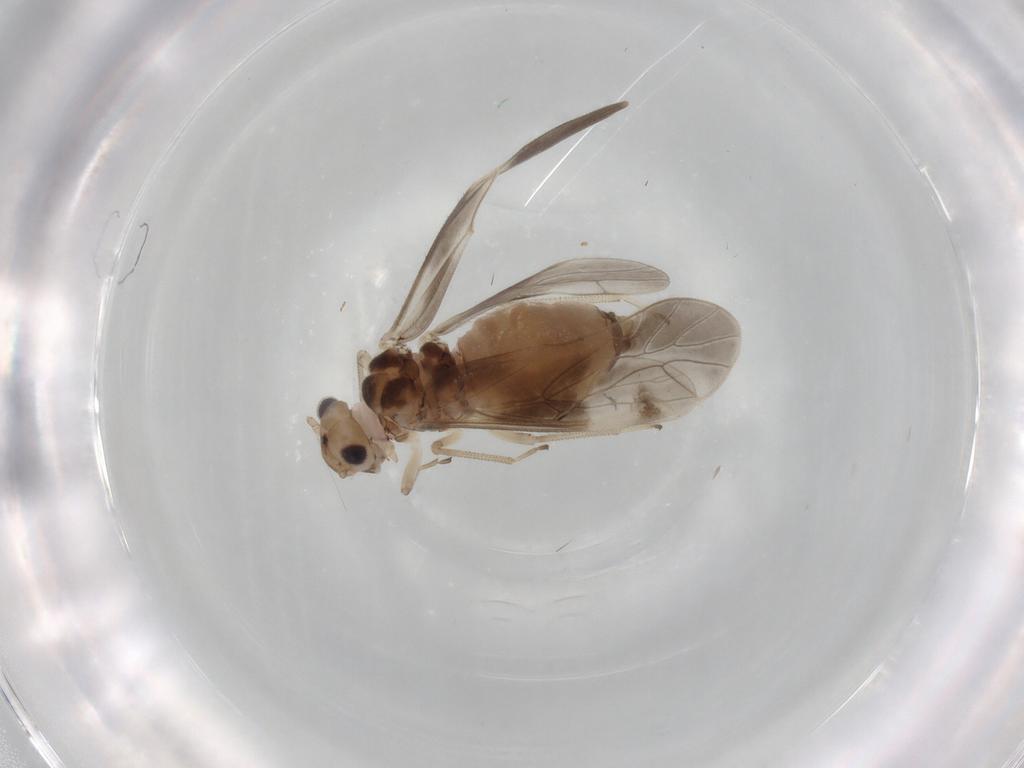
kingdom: Animalia
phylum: Arthropoda
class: Insecta
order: Psocodea
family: Caeciliusidae
